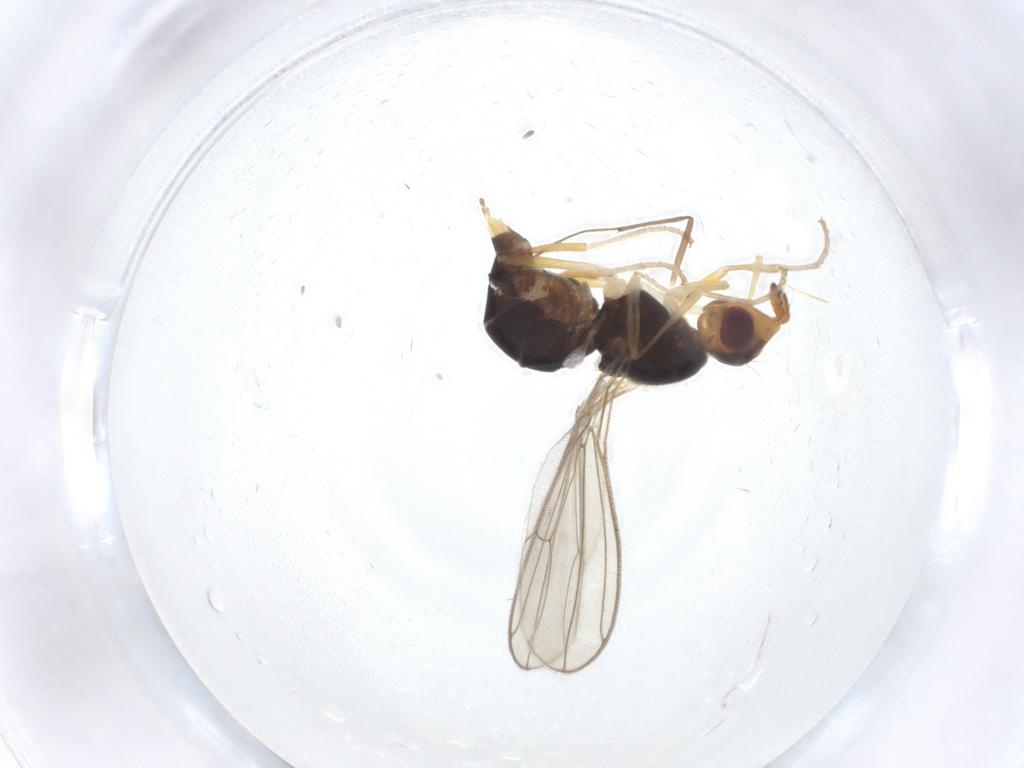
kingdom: Animalia
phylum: Arthropoda
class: Insecta
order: Diptera
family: Chironomidae
